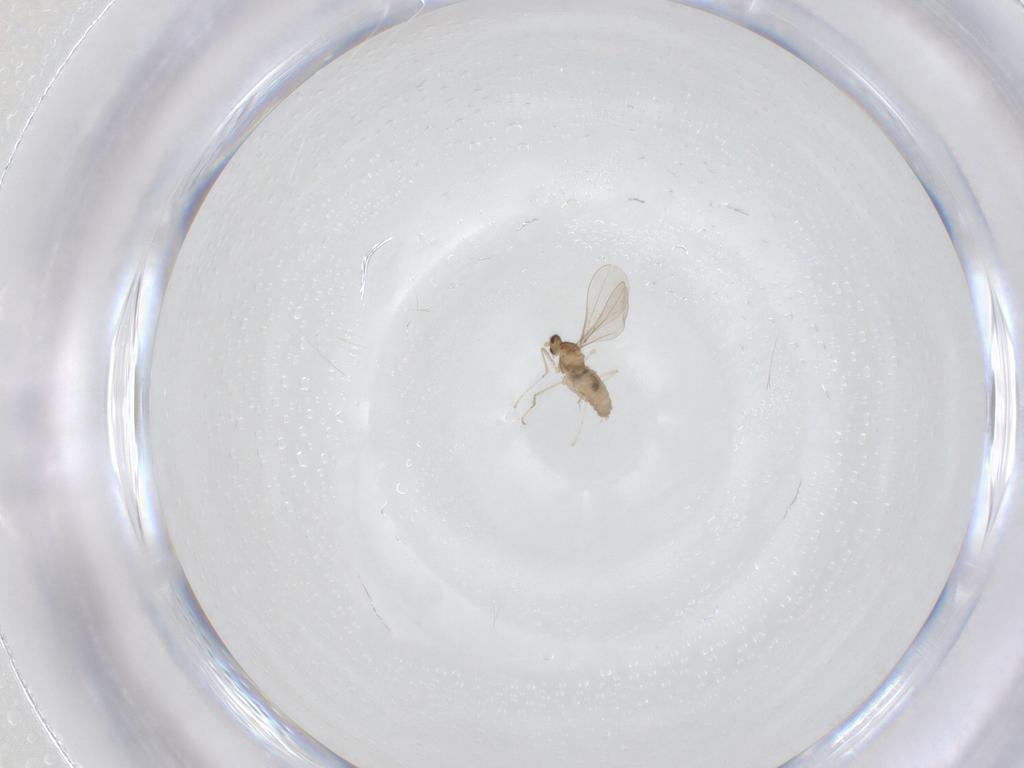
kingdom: Animalia
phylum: Arthropoda
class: Insecta
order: Diptera
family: Cecidomyiidae
